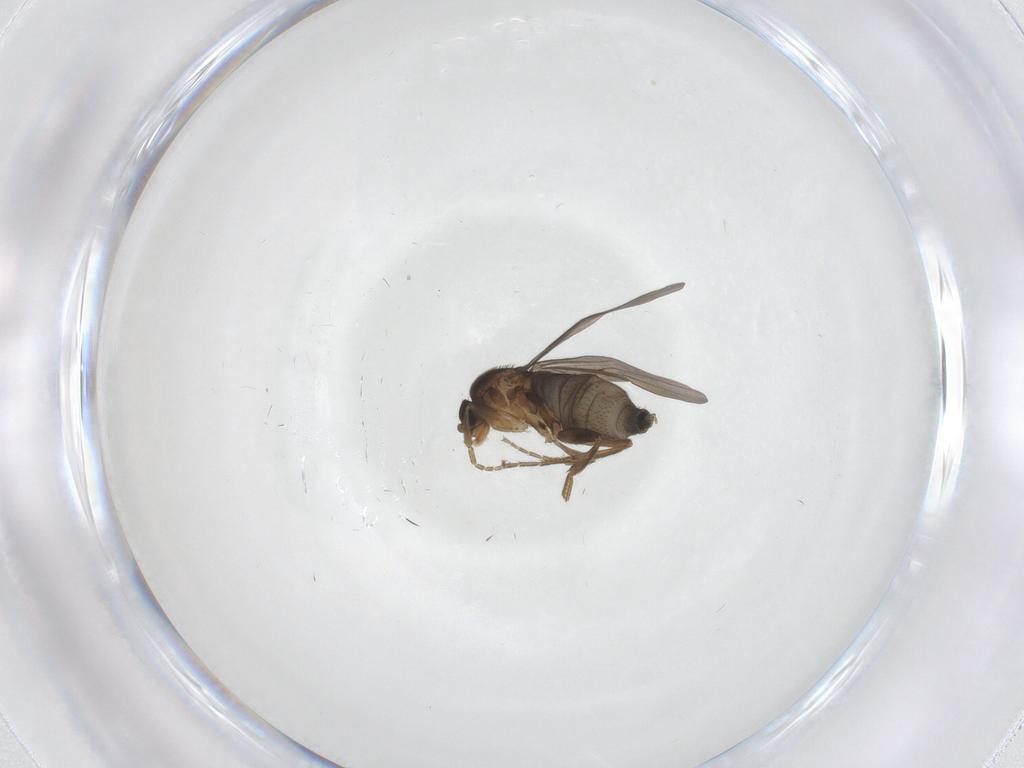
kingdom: Animalia
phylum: Arthropoda
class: Insecta
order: Diptera
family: Phoridae
